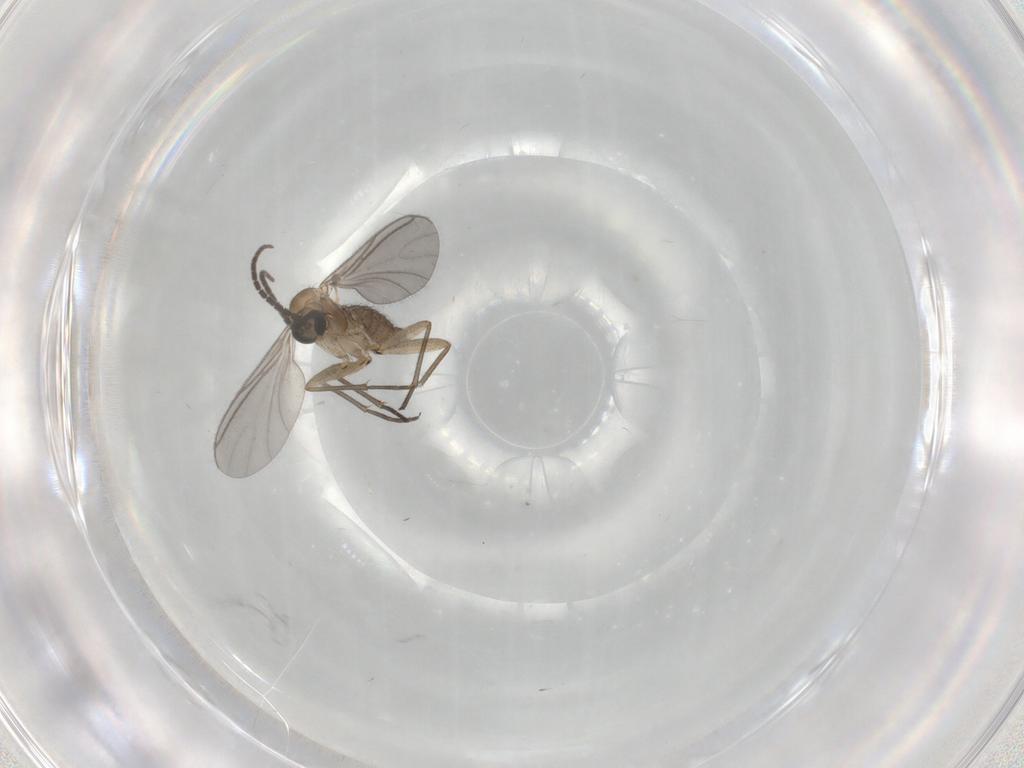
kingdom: Animalia
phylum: Arthropoda
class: Insecta
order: Diptera
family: Sciaridae
